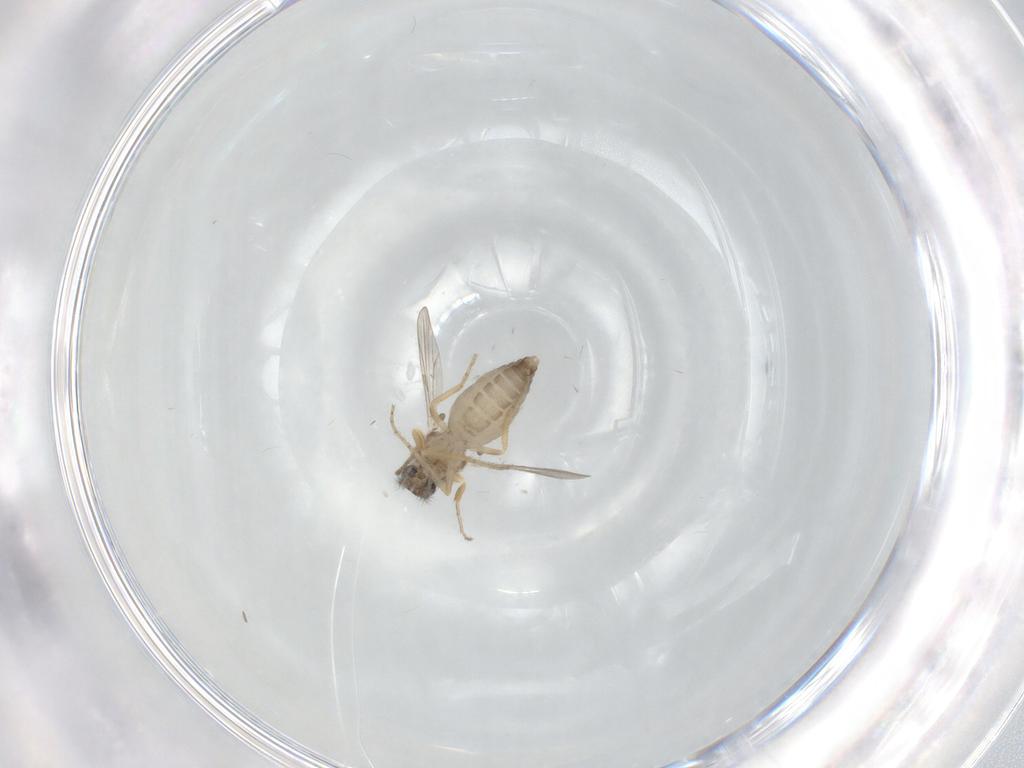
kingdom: Animalia
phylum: Arthropoda
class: Insecta
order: Diptera
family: Ceratopogonidae
